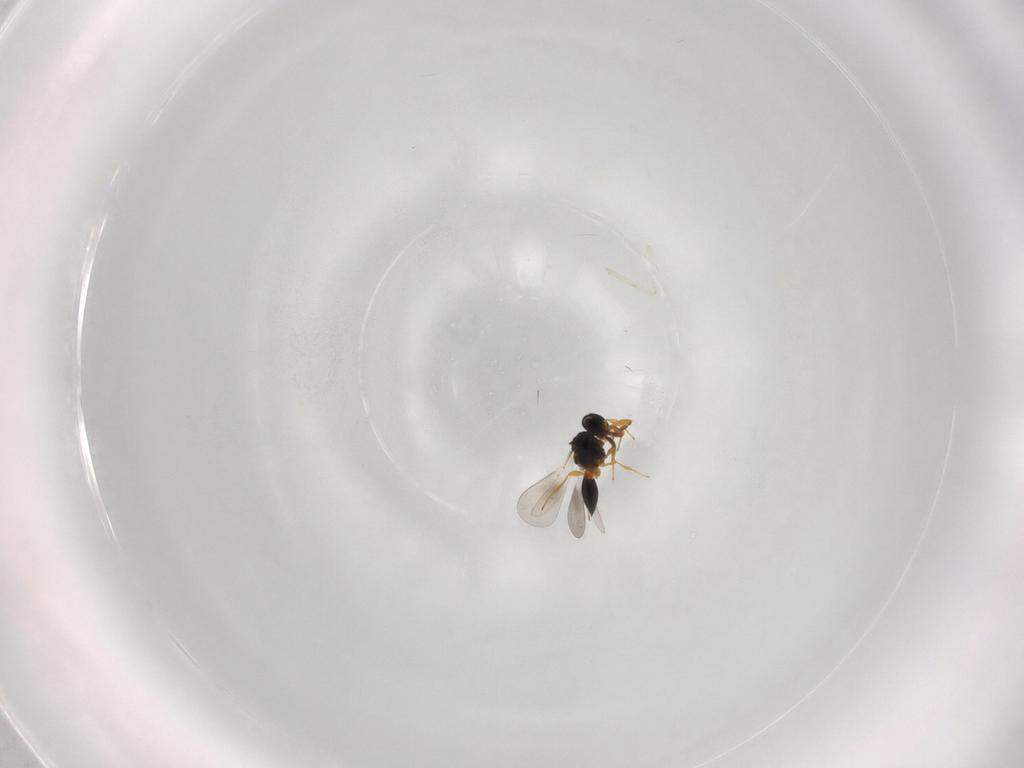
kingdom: Animalia
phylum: Arthropoda
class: Insecta
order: Hymenoptera
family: Platygastridae
